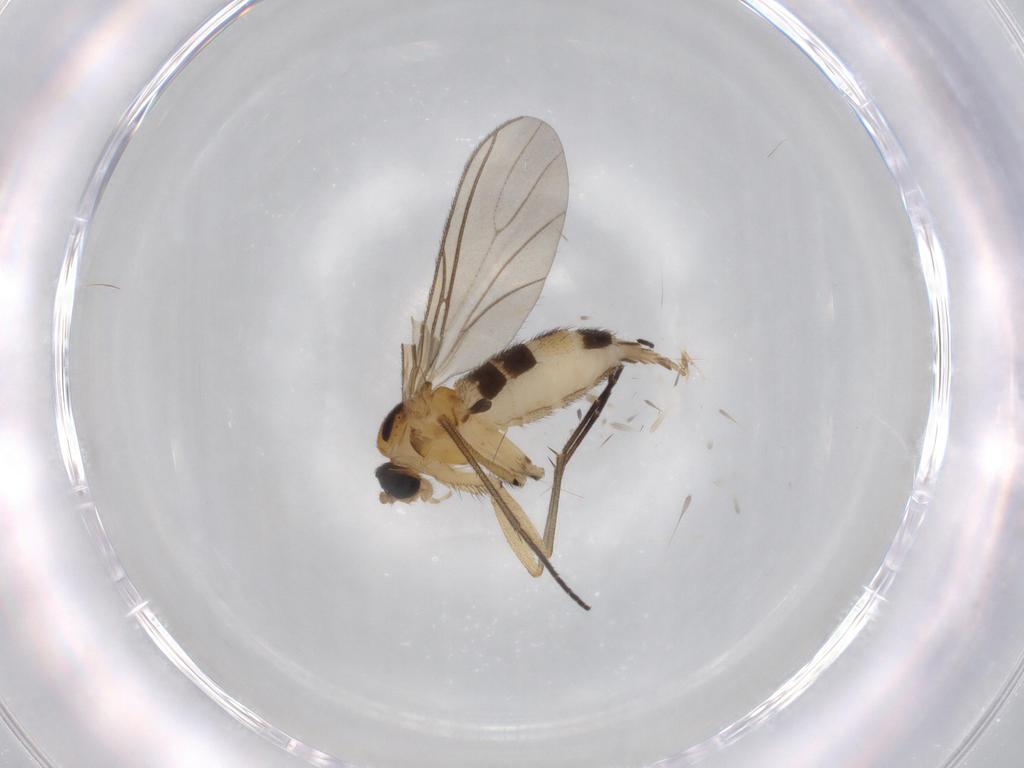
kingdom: Animalia
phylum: Arthropoda
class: Insecta
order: Diptera
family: Sciaridae
